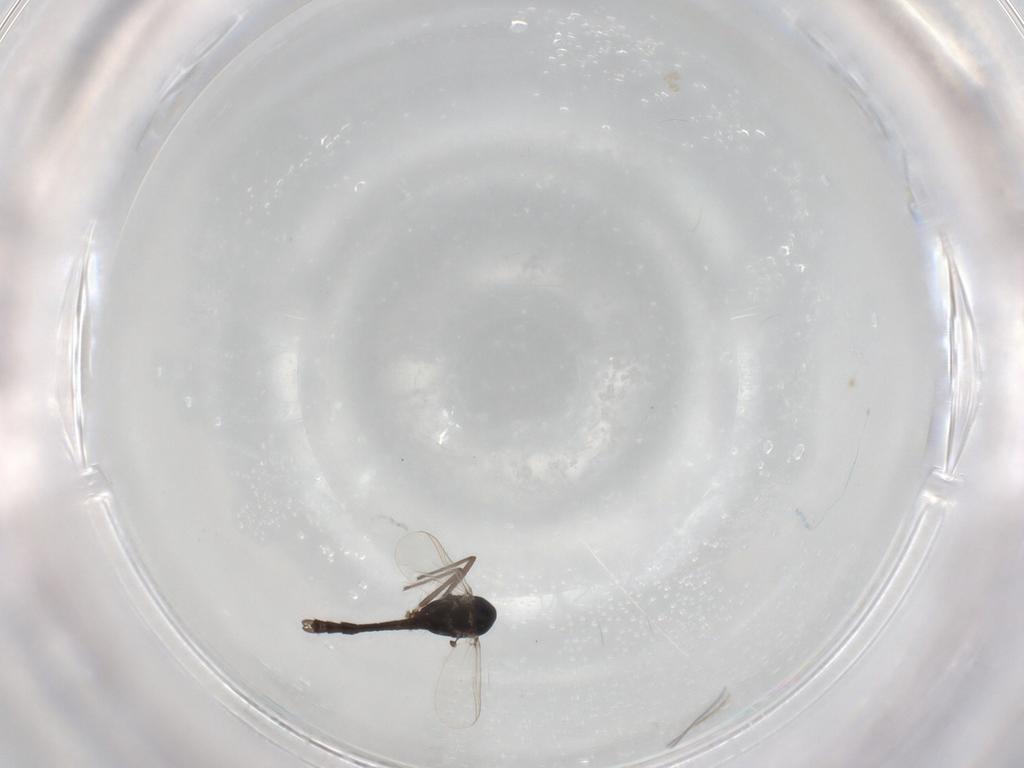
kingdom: Animalia
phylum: Arthropoda
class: Insecta
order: Diptera
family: Chironomidae
